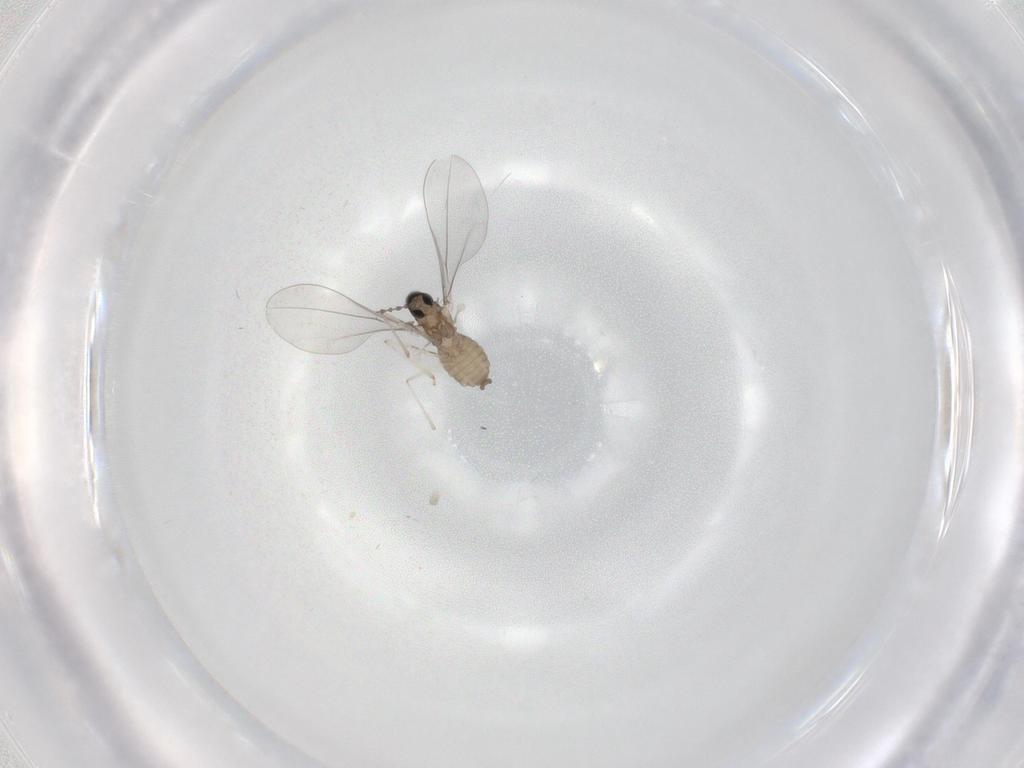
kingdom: Animalia
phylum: Arthropoda
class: Insecta
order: Diptera
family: Cecidomyiidae
